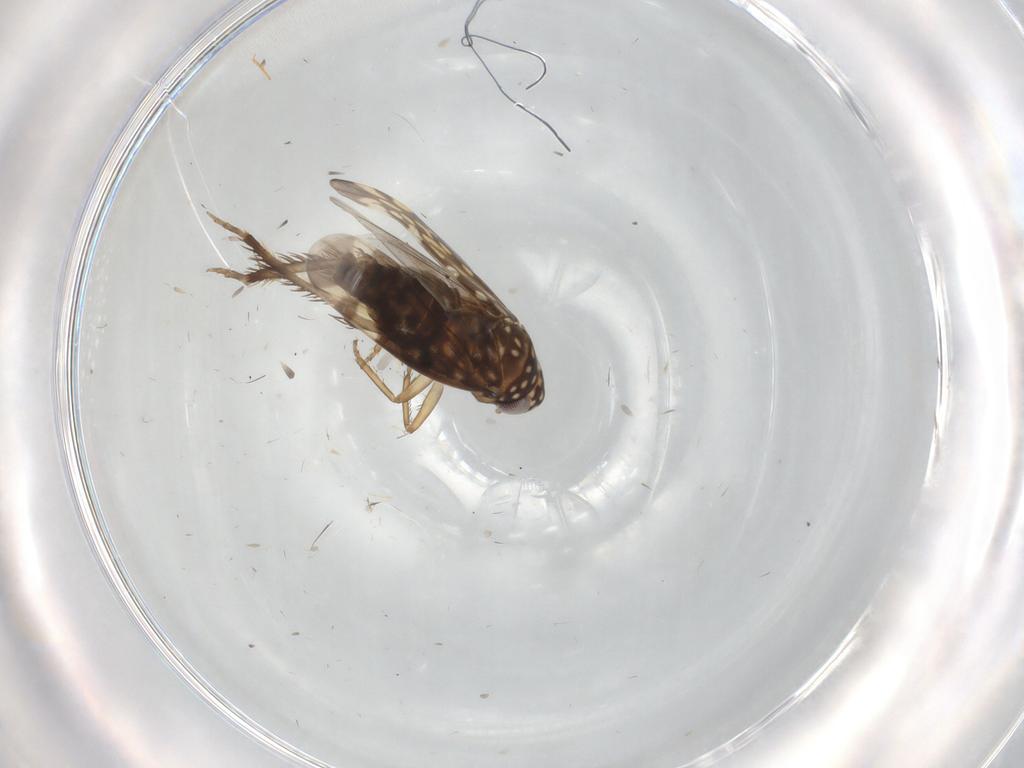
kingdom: Animalia
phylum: Arthropoda
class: Insecta
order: Hemiptera
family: Cicadellidae
